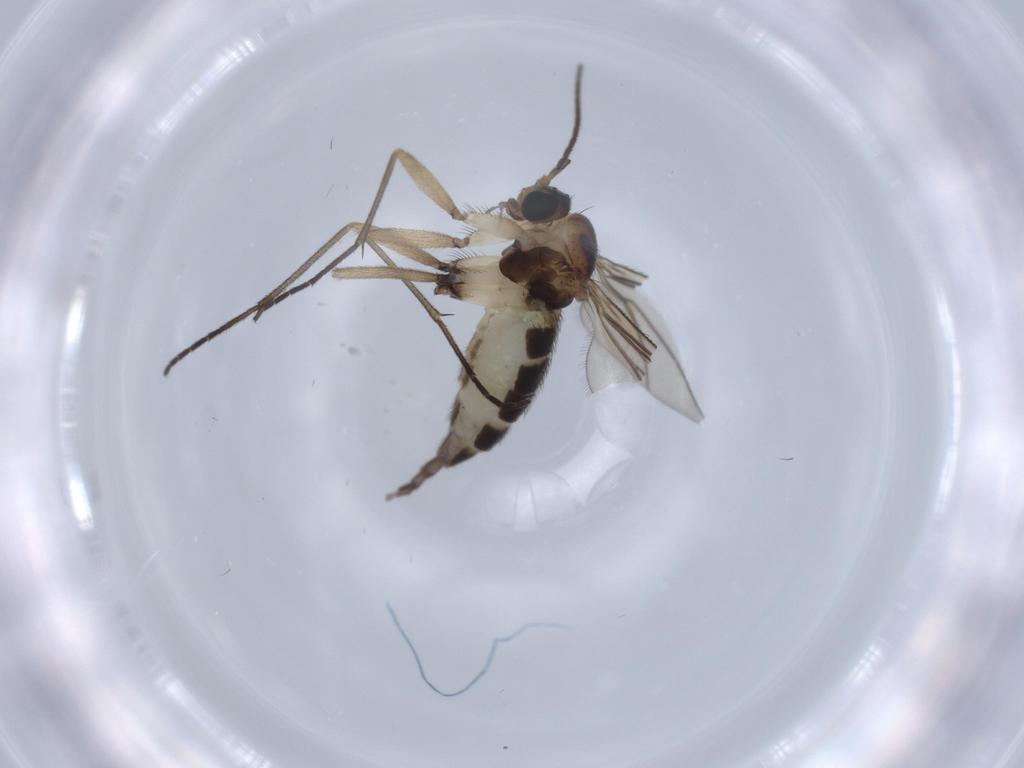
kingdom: Animalia
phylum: Arthropoda
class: Insecta
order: Diptera
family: Sciaridae
